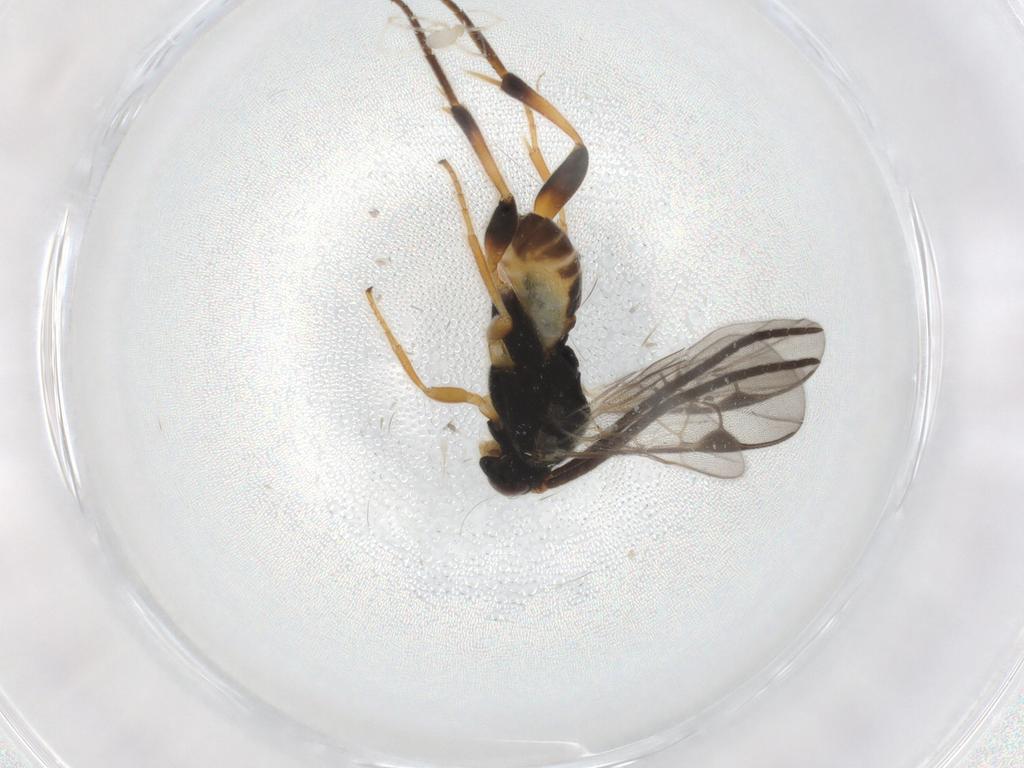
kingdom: Animalia
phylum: Arthropoda
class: Insecta
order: Hymenoptera
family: Braconidae
